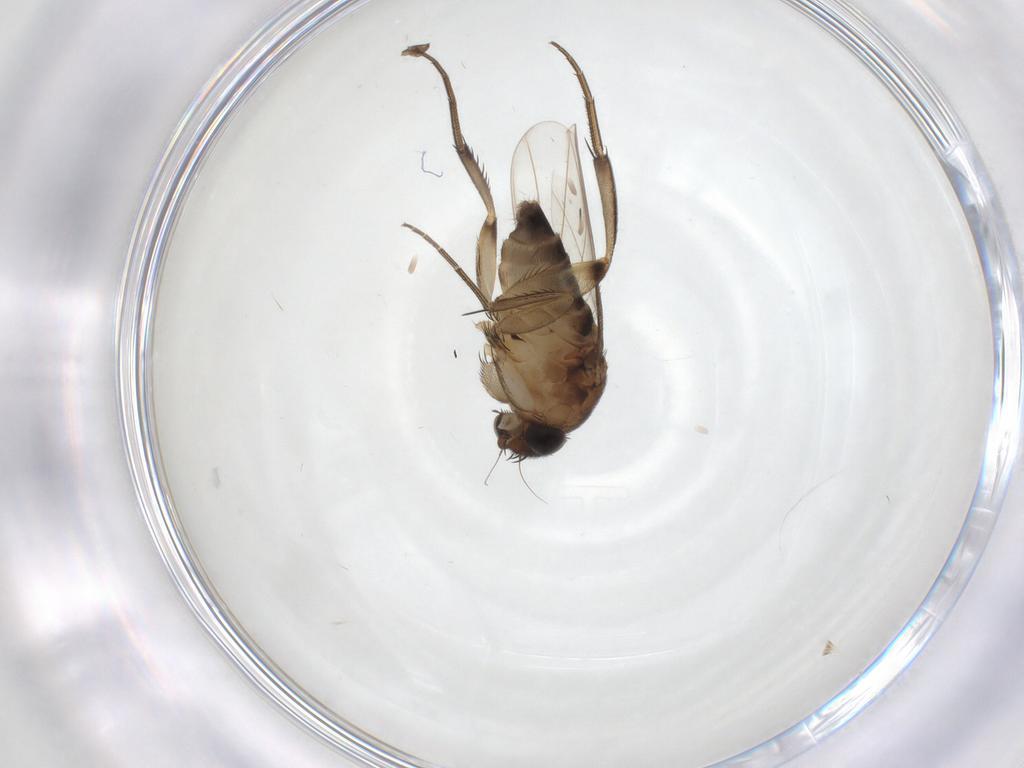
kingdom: Animalia
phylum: Arthropoda
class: Insecta
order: Diptera
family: Phoridae
